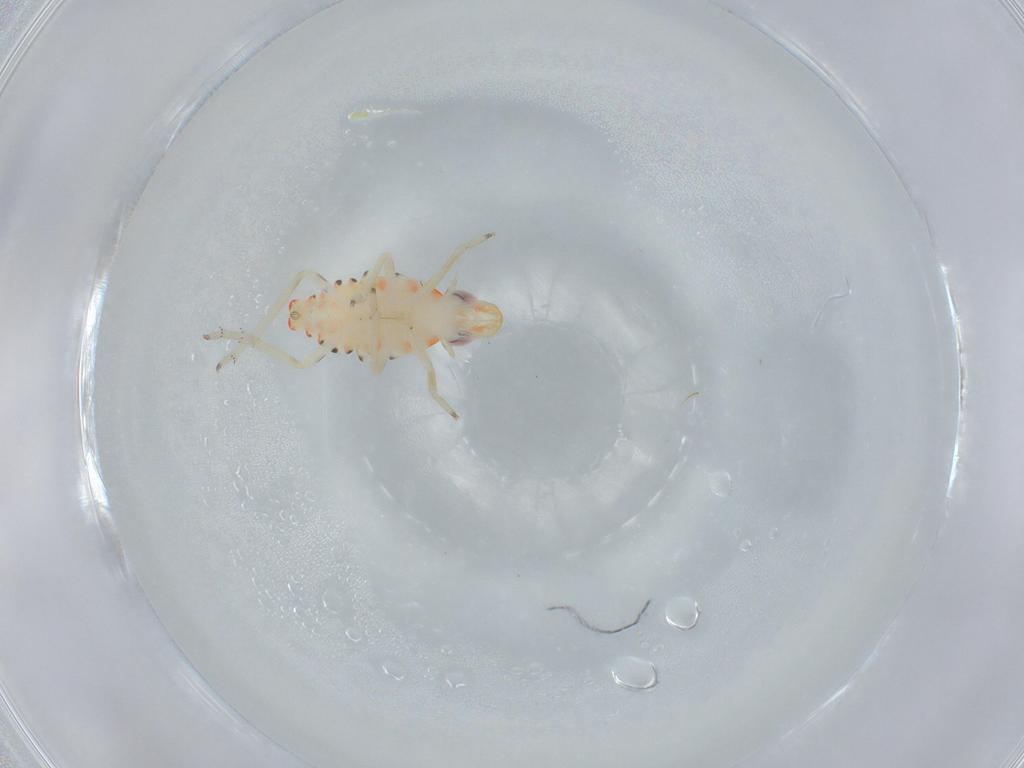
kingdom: Animalia
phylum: Arthropoda
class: Insecta
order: Hemiptera
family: Tropiduchidae
